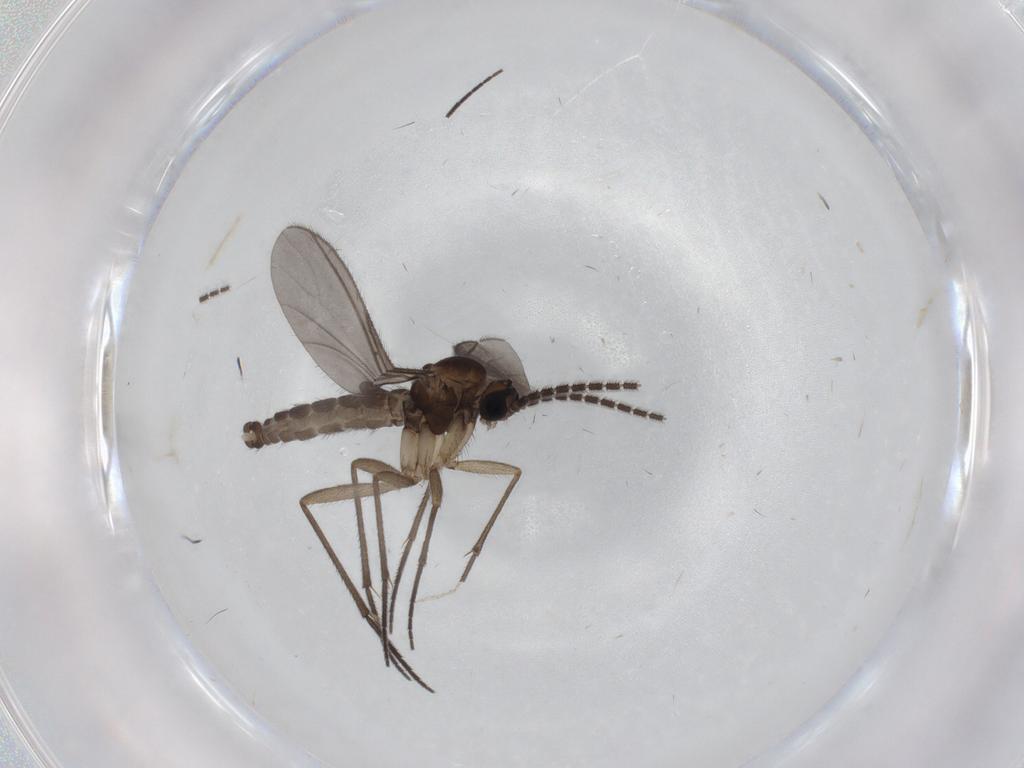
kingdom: Animalia
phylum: Arthropoda
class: Insecta
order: Diptera
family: Sciaridae
